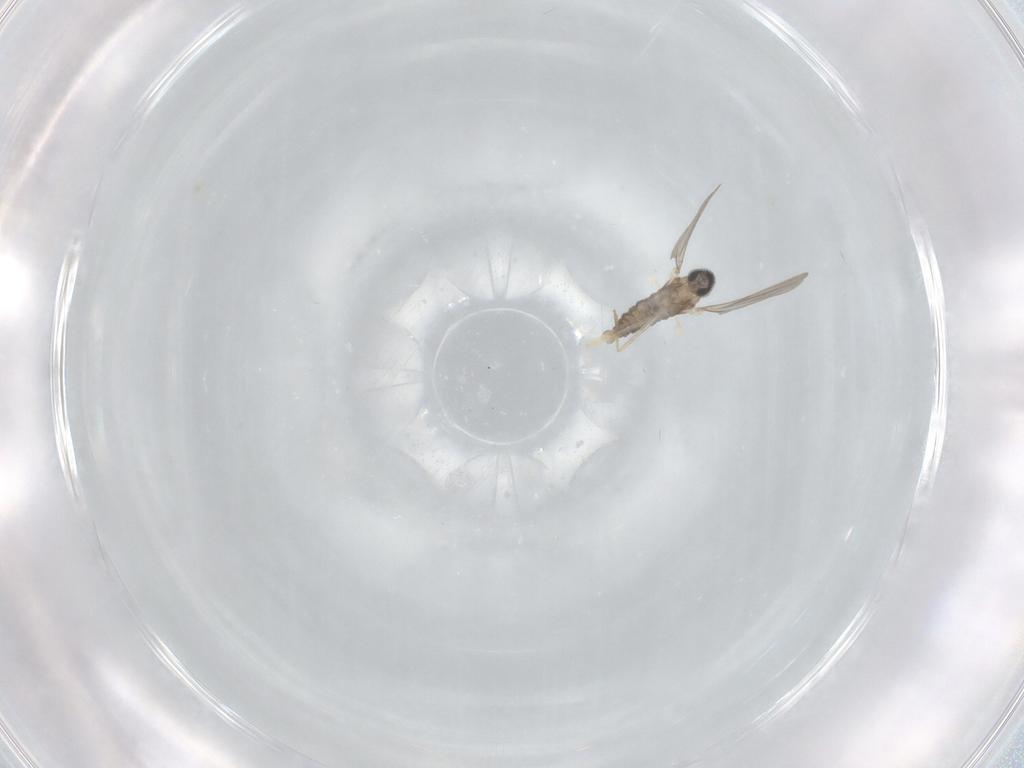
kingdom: Animalia
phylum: Arthropoda
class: Insecta
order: Diptera
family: Cecidomyiidae
